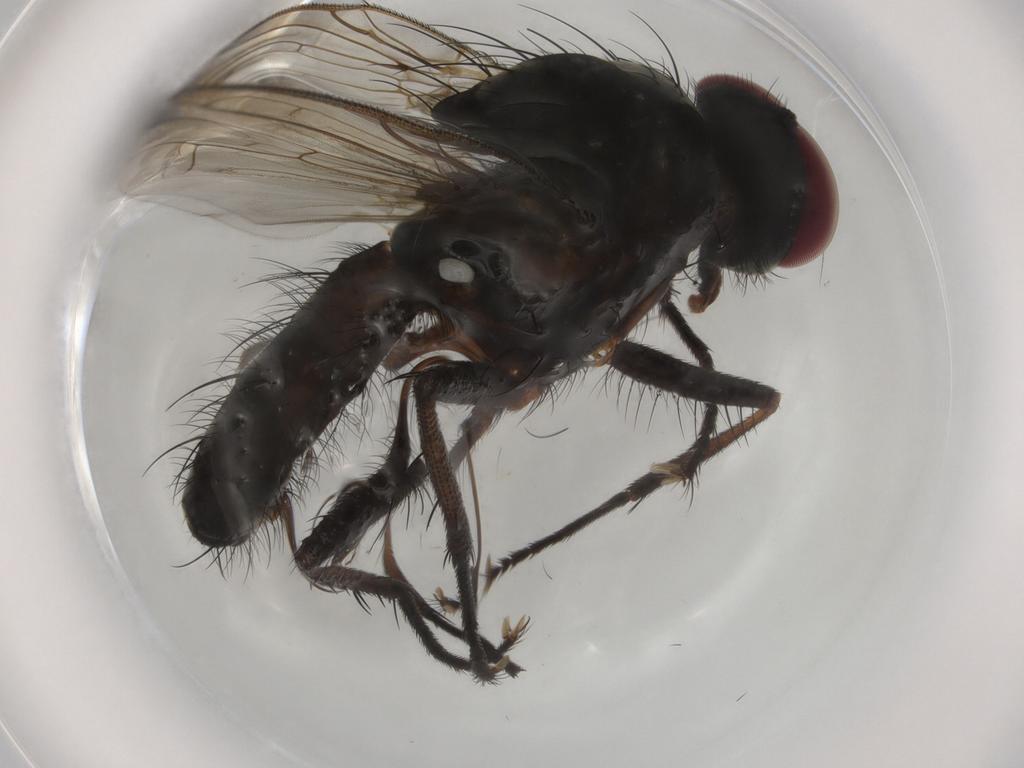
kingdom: Animalia
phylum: Arthropoda
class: Insecta
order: Diptera
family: Anthomyiidae
